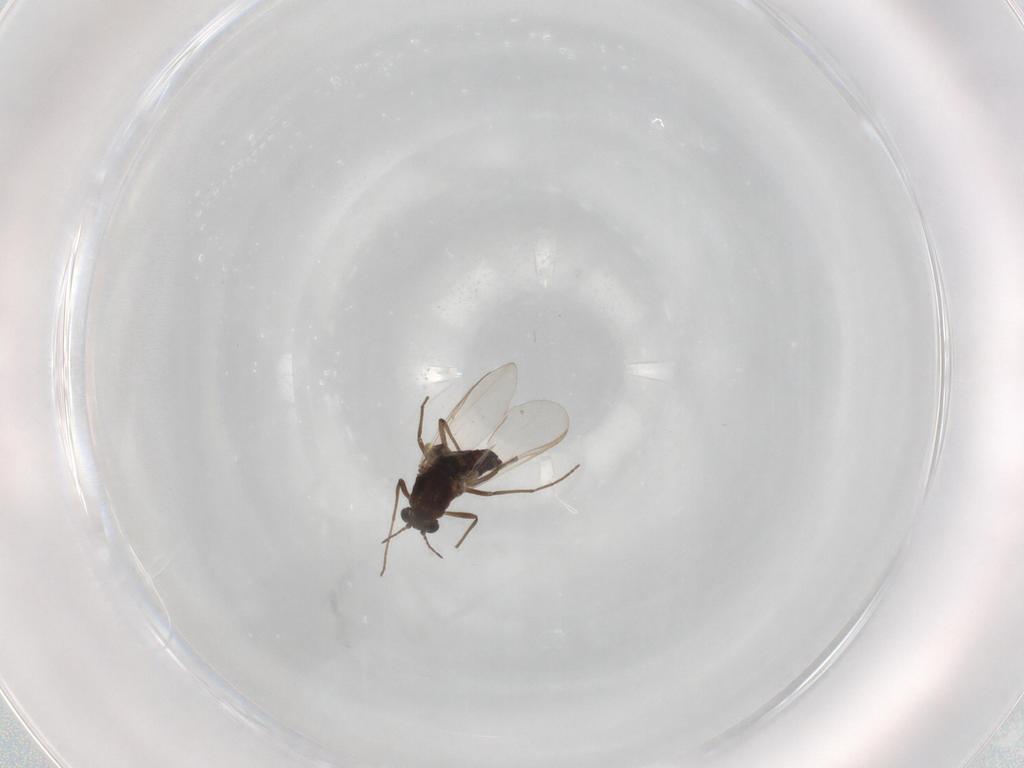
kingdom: Animalia
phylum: Arthropoda
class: Insecta
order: Diptera
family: Chironomidae
